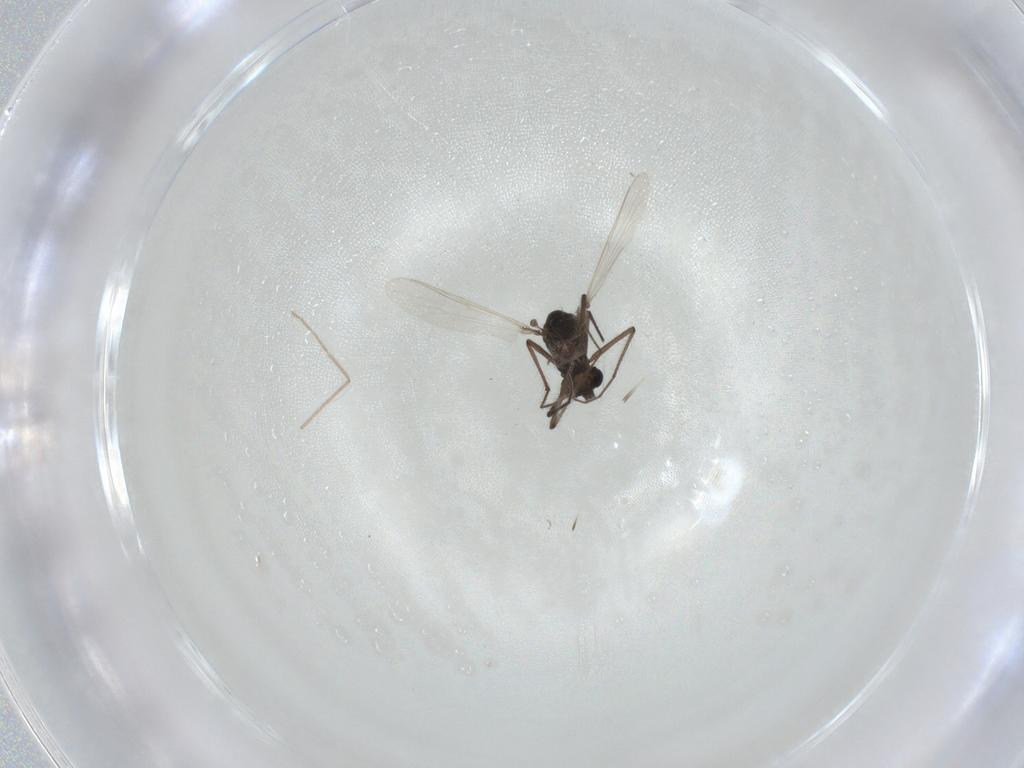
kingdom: Animalia
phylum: Arthropoda
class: Insecta
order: Diptera
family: Chironomidae
